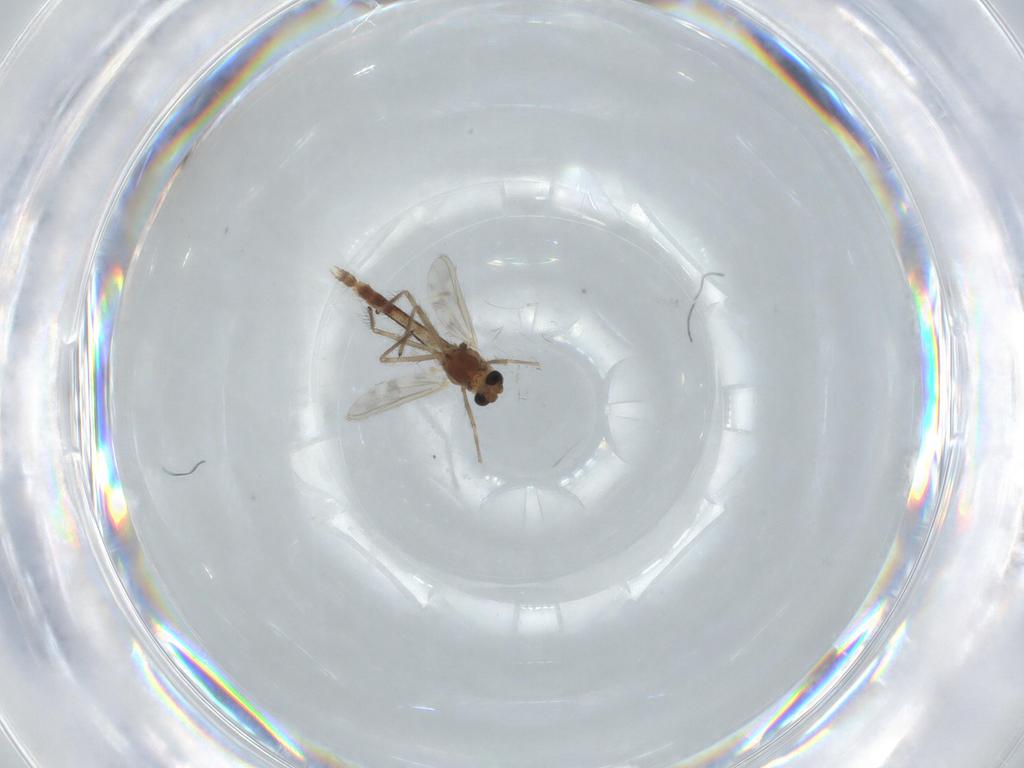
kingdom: Animalia
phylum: Arthropoda
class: Insecta
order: Diptera
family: Chironomidae
